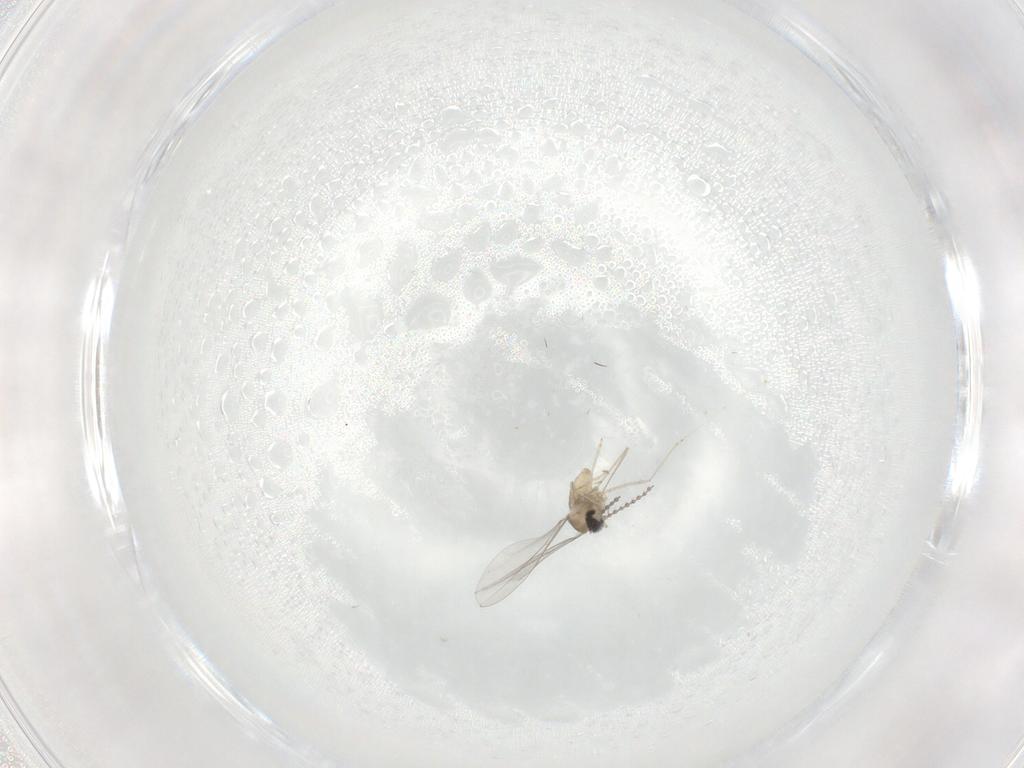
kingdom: Animalia
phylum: Arthropoda
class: Insecta
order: Diptera
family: Cecidomyiidae
